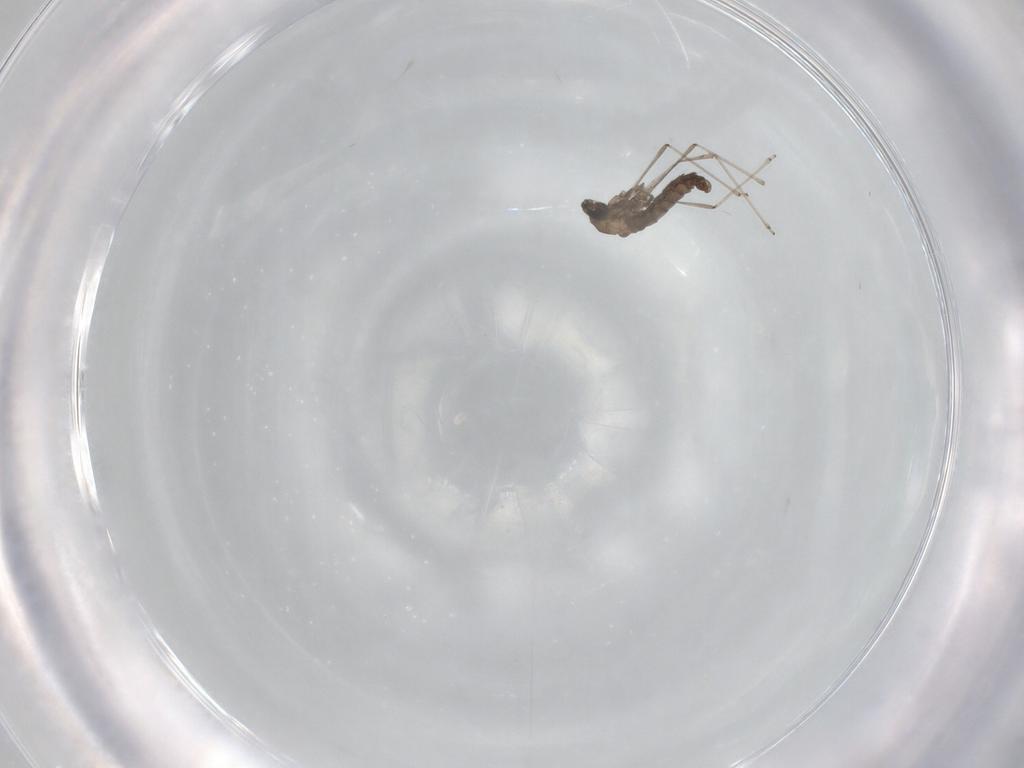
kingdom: Animalia
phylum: Arthropoda
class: Insecta
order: Diptera
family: Cecidomyiidae
